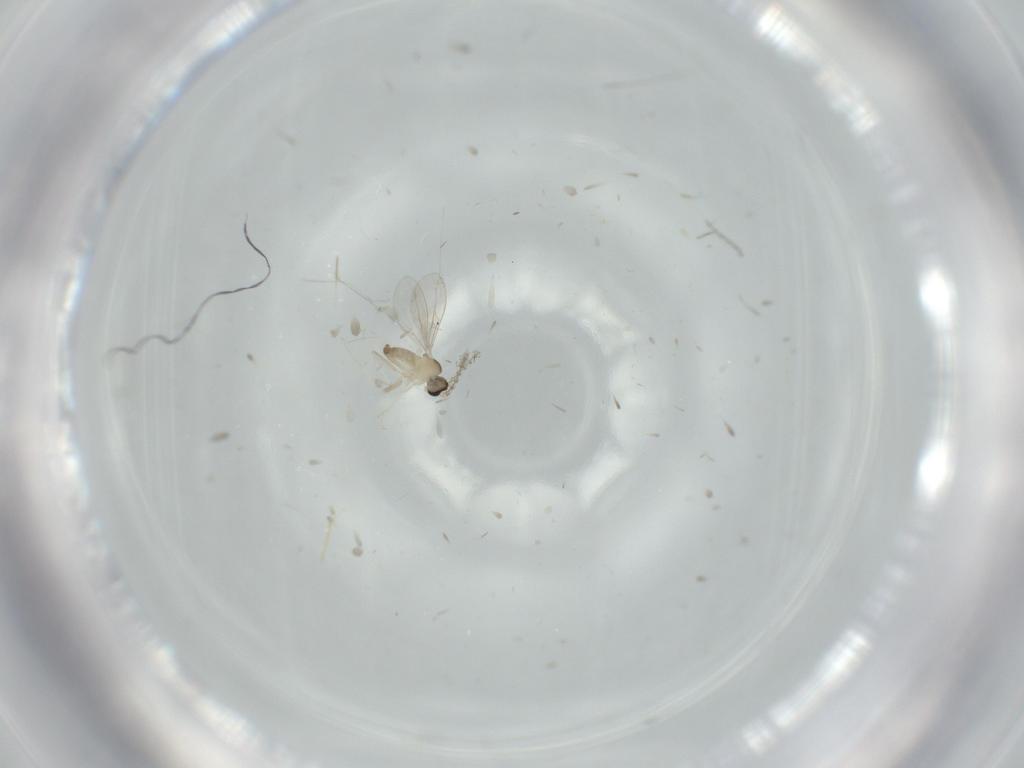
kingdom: Animalia
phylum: Arthropoda
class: Insecta
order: Diptera
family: Cecidomyiidae
